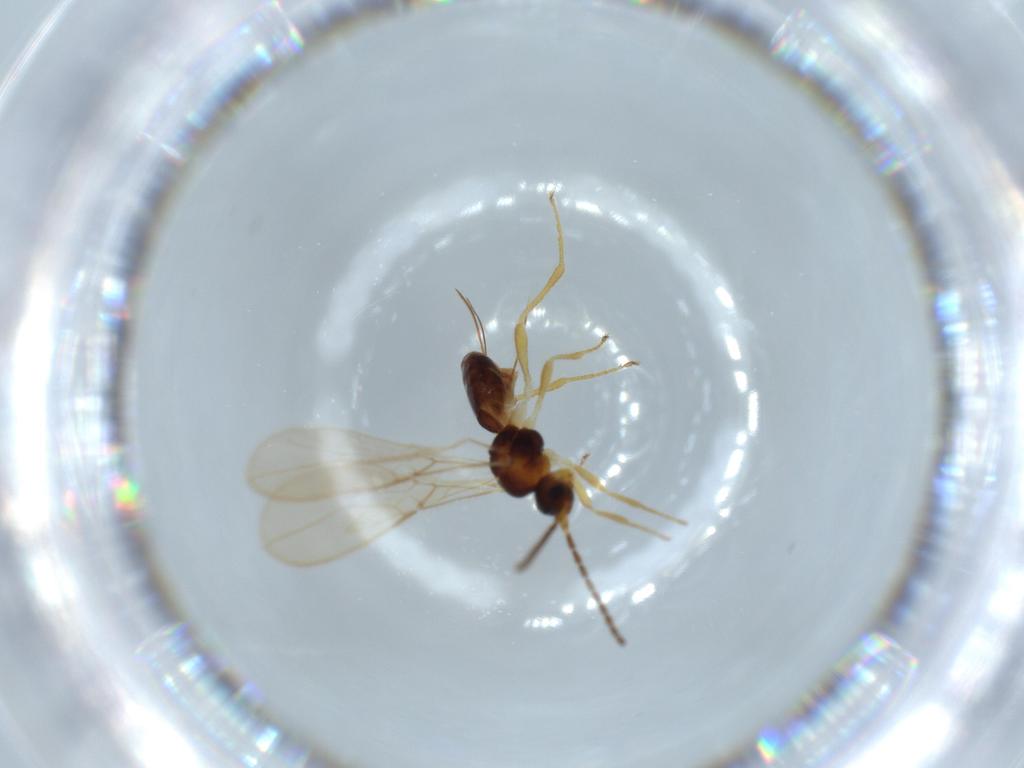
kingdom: Animalia
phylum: Arthropoda
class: Insecta
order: Hymenoptera
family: Braconidae
